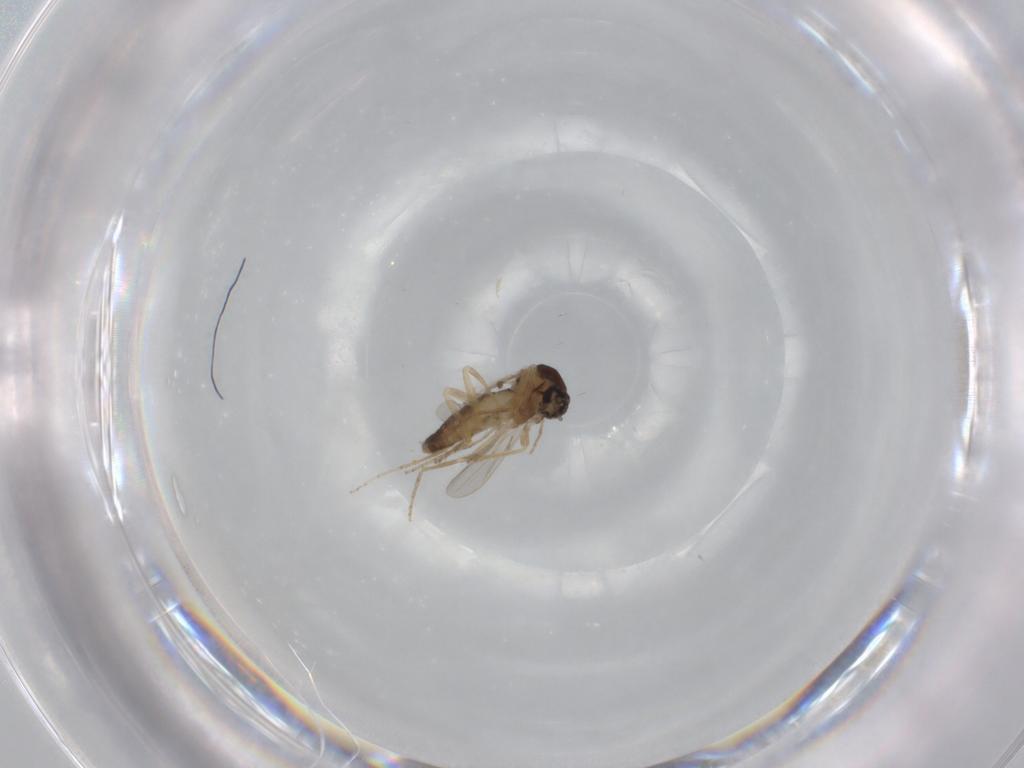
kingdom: Animalia
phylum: Arthropoda
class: Insecta
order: Diptera
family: Ceratopogonidae
